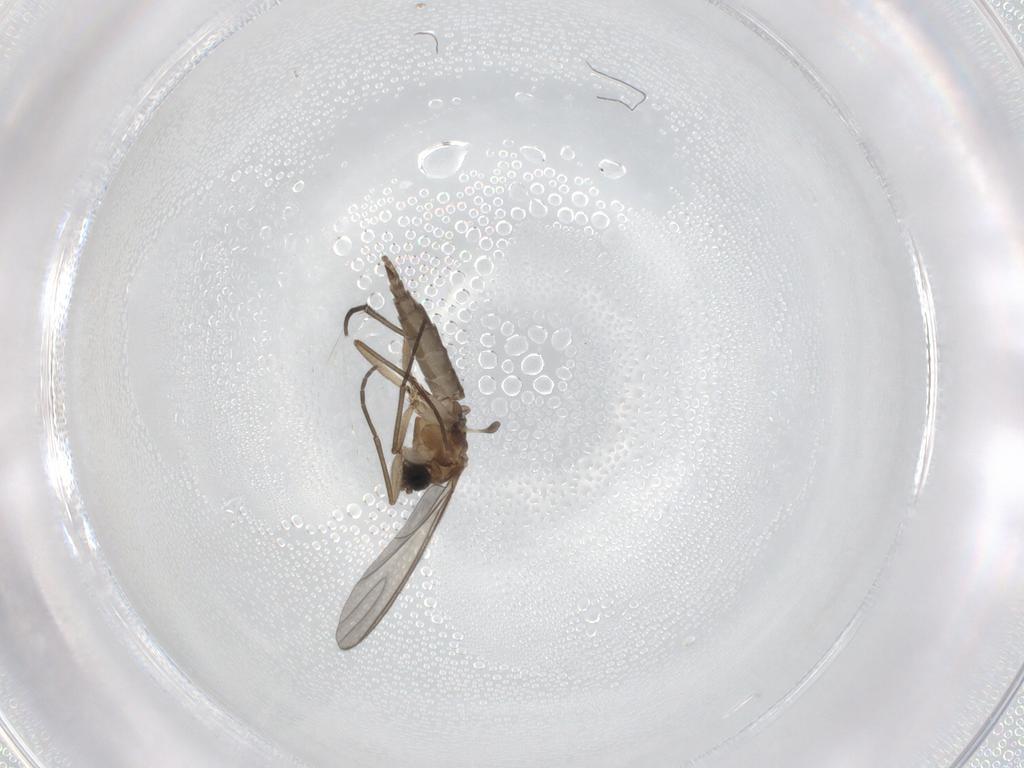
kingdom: Animalia
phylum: Arthropoda
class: Insecta
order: Diptera
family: Sciaridae
